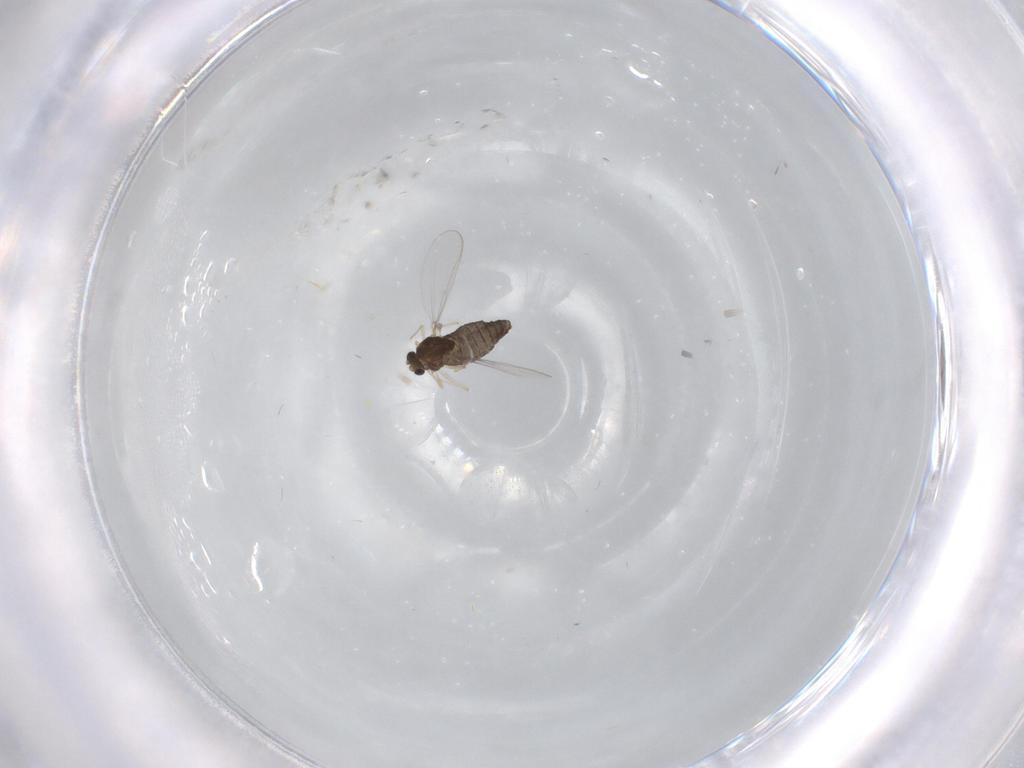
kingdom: Animalia
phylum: Arthropoda
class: Insecta
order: Diptera
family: Chironomidae
